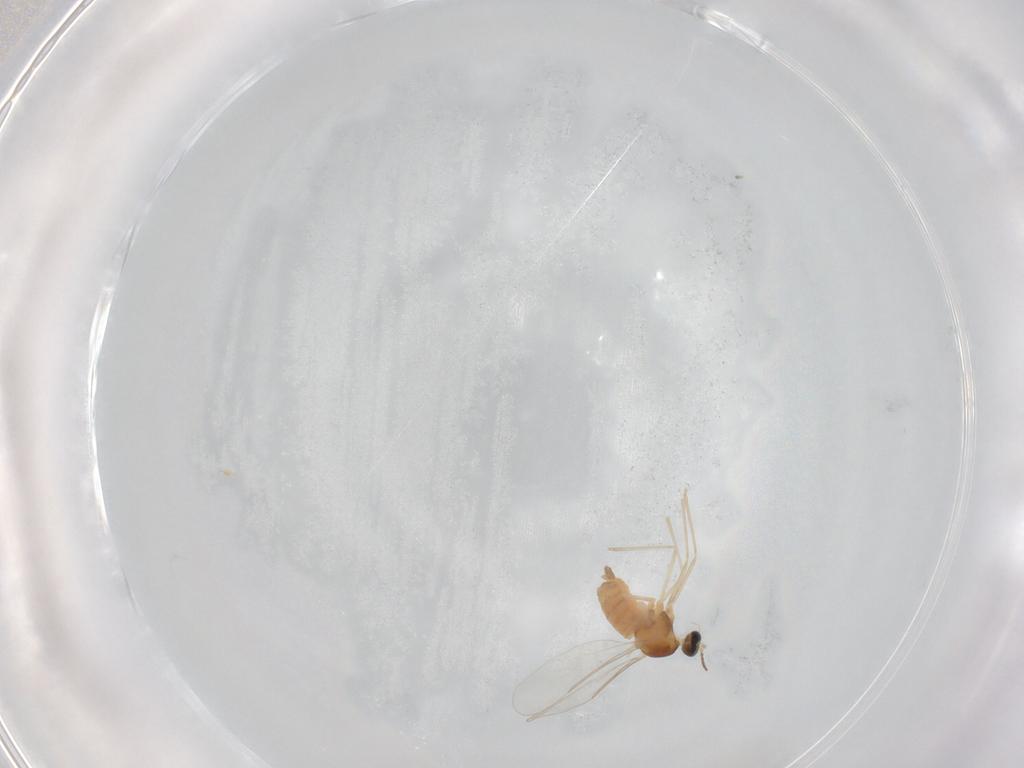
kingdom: Animalia
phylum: Arthropoda
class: Insecta
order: Diptera
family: Cecidomyiidae
